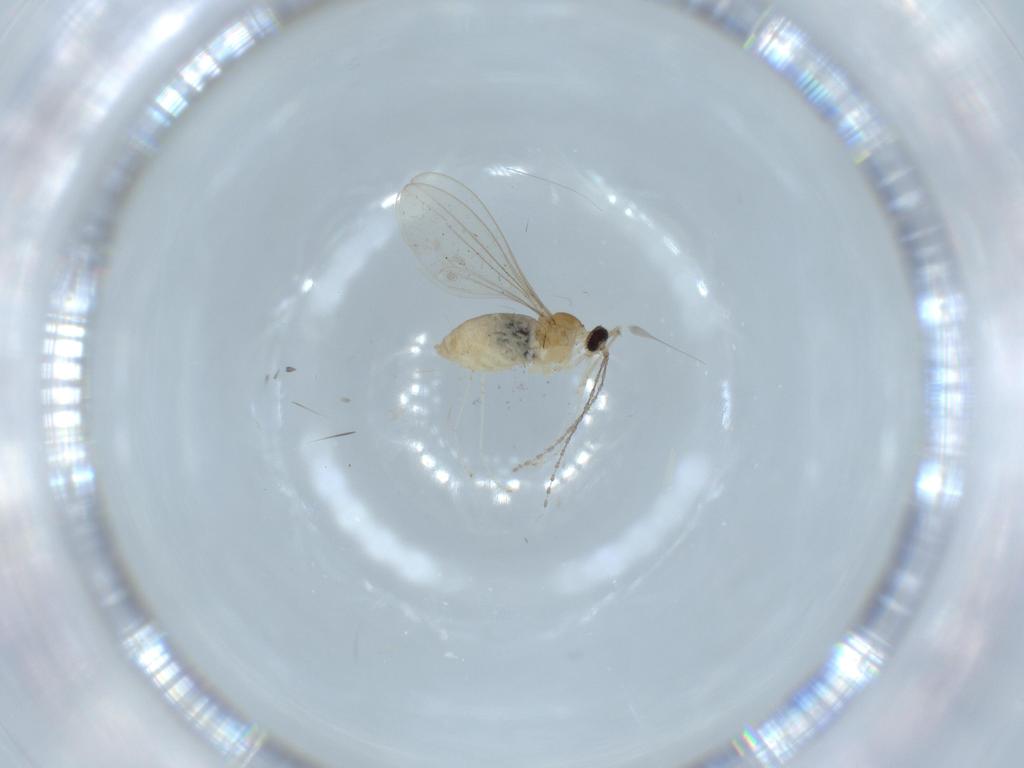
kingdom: Animalia
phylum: Arthropoda
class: Insecta
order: Diptera
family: Cecidomyiidae
